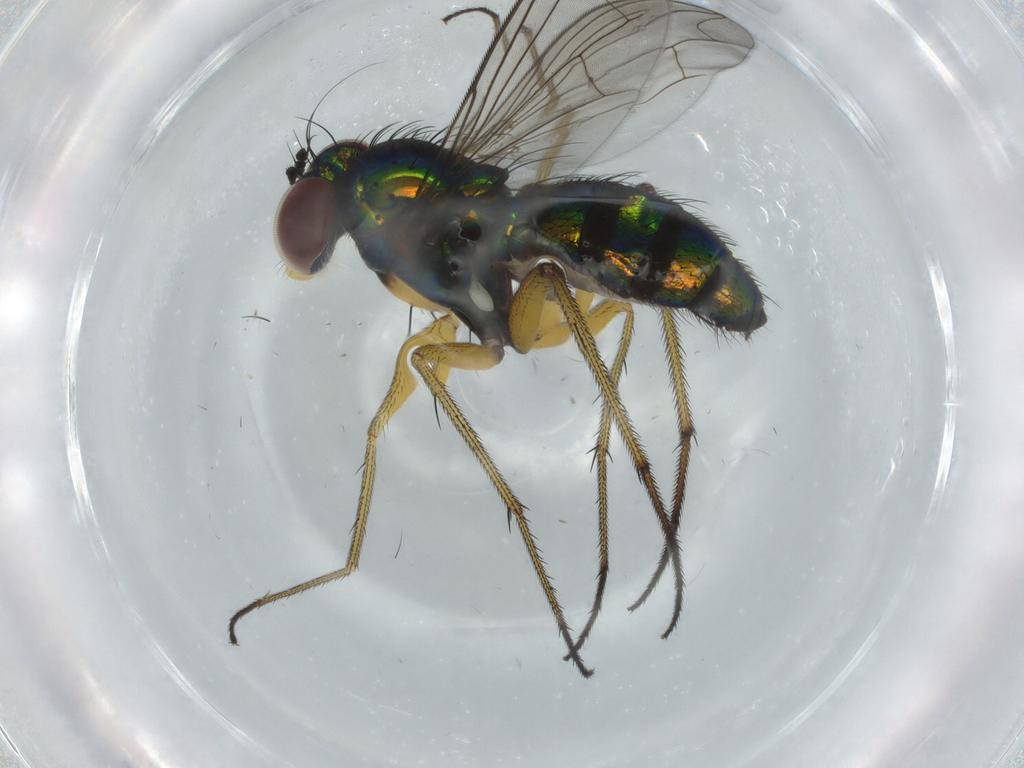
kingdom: Animalia
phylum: Arthropoda
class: Insecta
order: Diptera
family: Dolichopodidae
